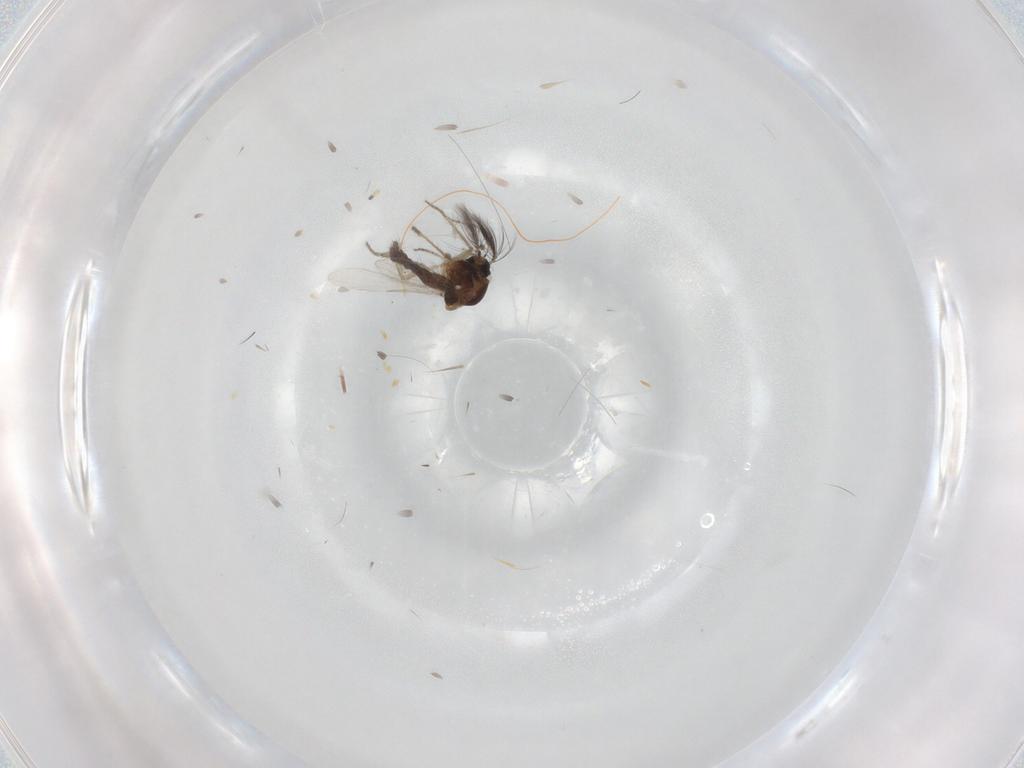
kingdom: Animalia
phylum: Arthropoda
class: Insecta
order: Diptera
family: Ceratopogonidae
